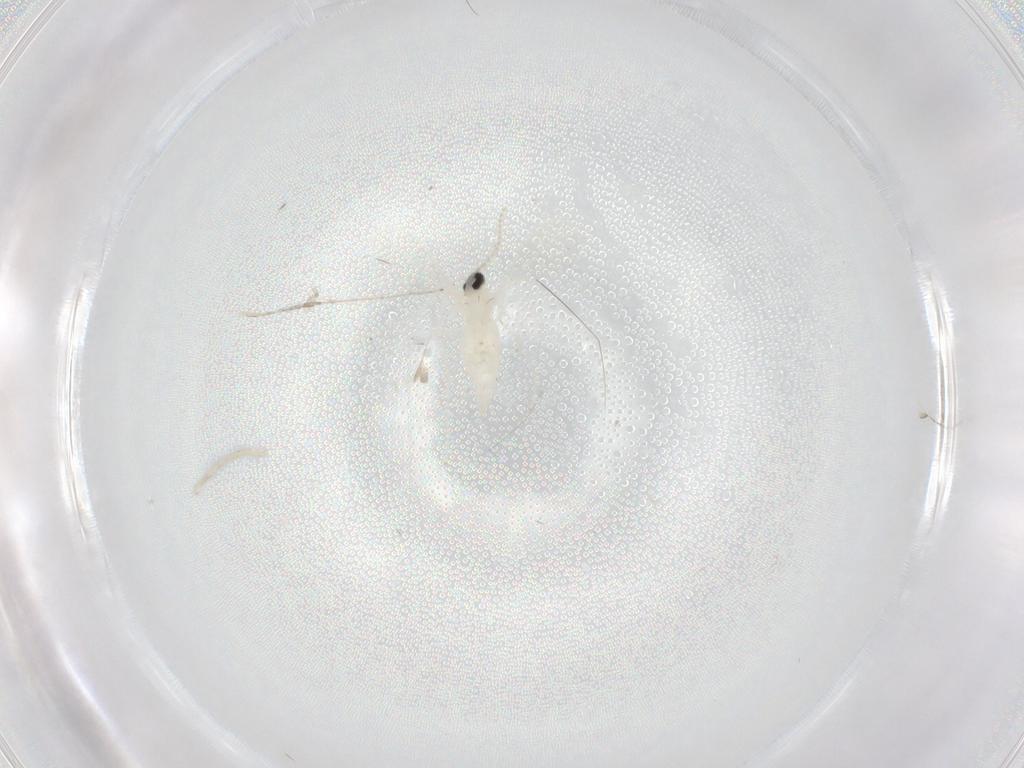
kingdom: Animalia
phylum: Arthropoda
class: Insecta
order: Diptera
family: Cecidomyiidae
